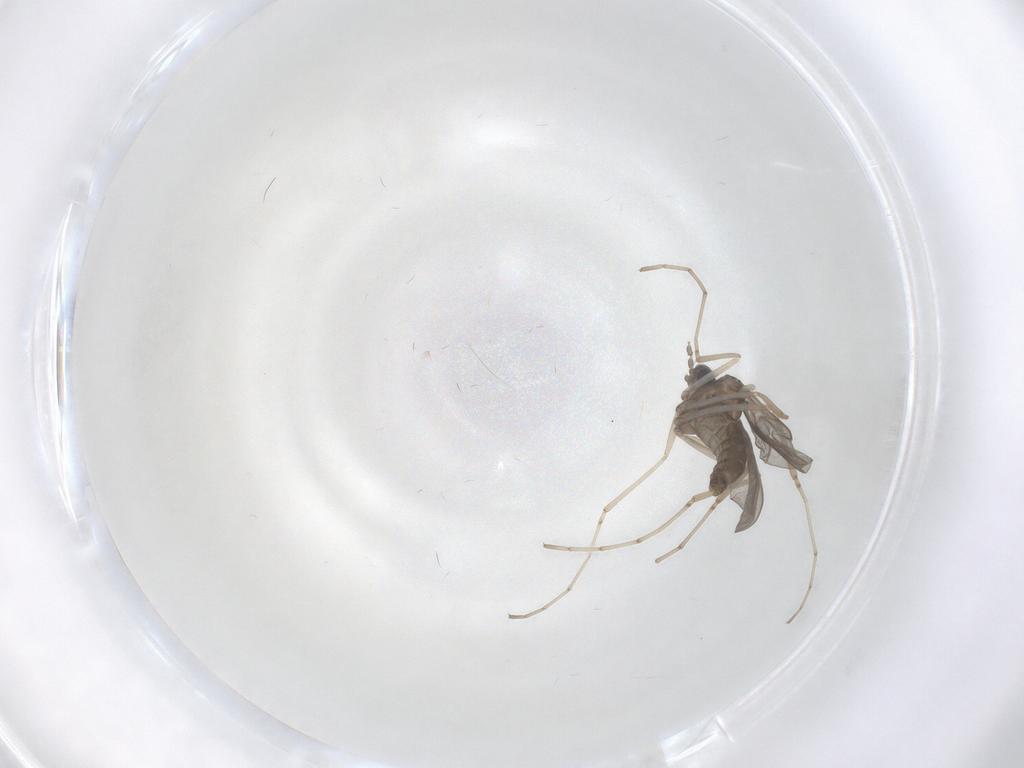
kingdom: Animalia
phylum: Arthropoda
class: Insecta
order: Diptera
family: Cecidomyiidae
